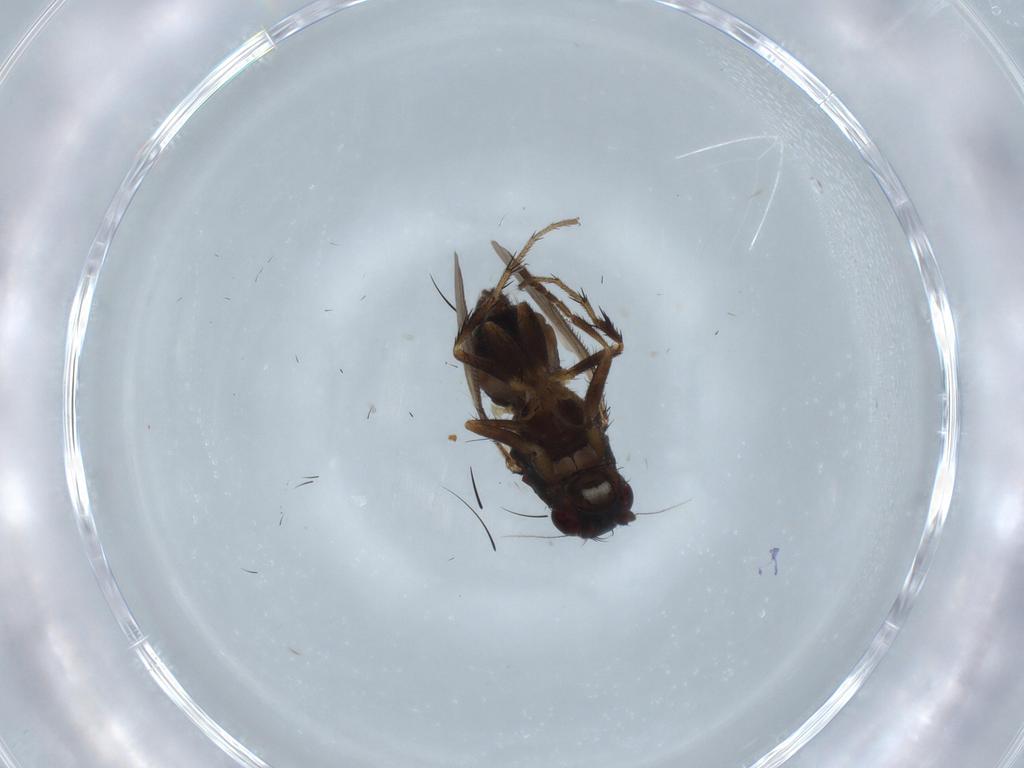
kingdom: Animalia
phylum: Arthropoda
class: Insecta
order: Diptera
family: Sphaeroceridae
